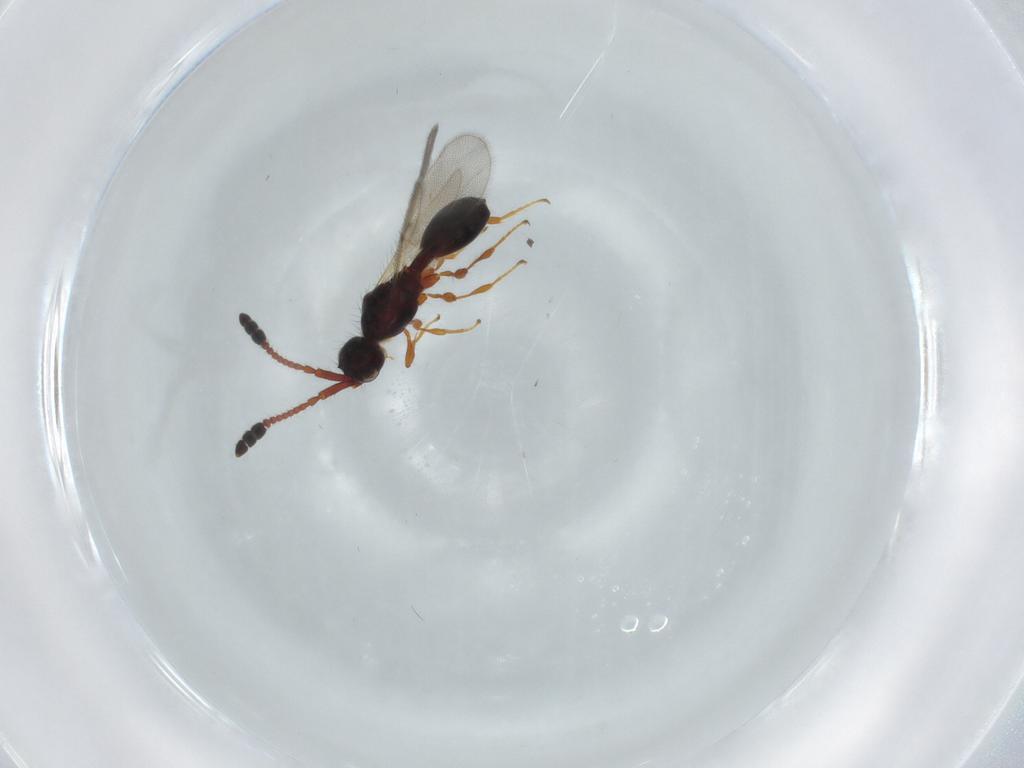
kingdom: Animalia
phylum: Arthropoda
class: Insecta
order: Hymenoptera
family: Diapriidae
